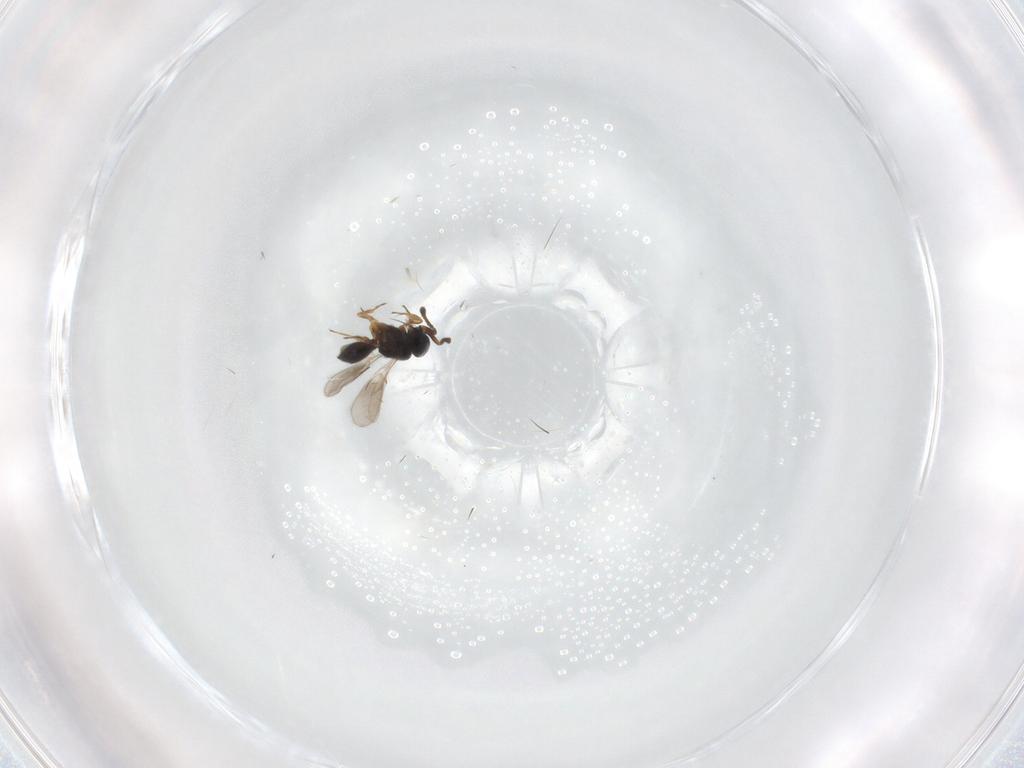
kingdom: Animalia
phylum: Arthropoda
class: Insecta
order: Hymenoptera
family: Scelionidae
